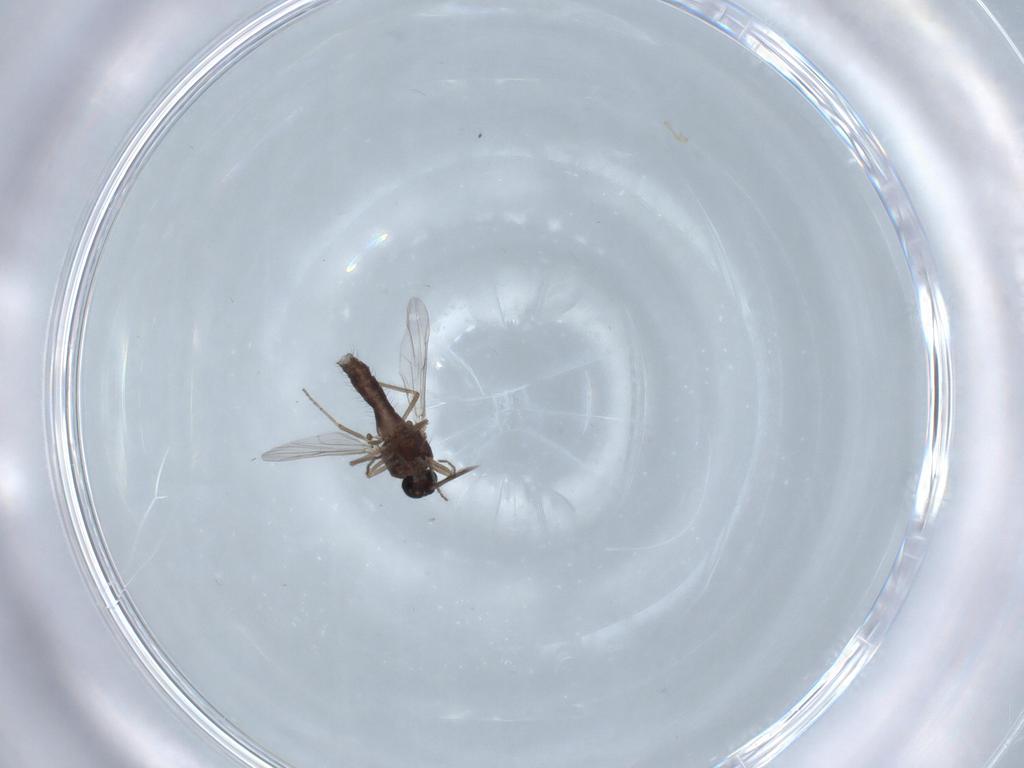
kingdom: Animalia
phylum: Arthropoda
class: Insecta
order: Diptera
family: Ceratopogonidae
